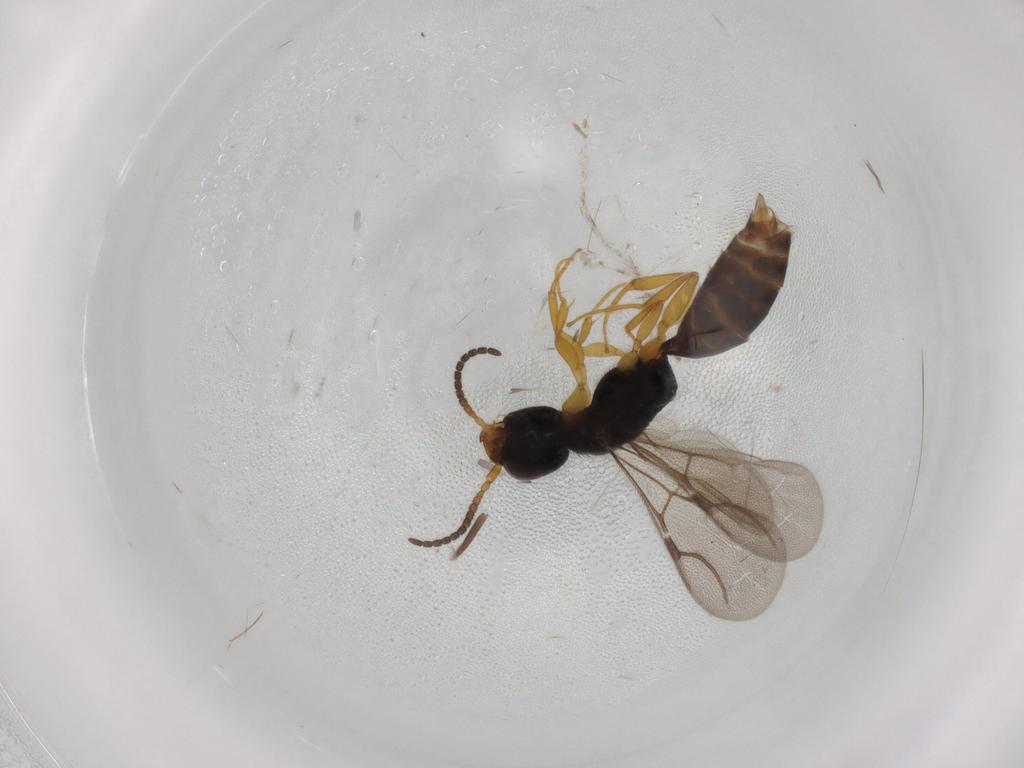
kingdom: Animalia
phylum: Arthropoda
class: Insecta
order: Hymenoptera
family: Bethylidae
